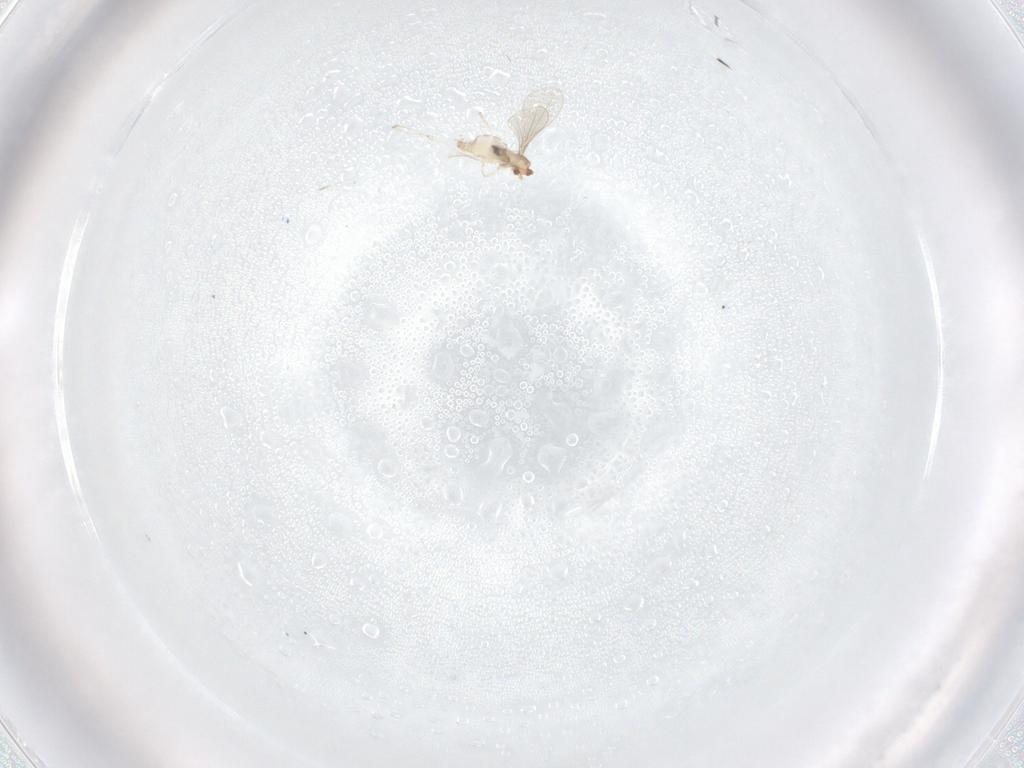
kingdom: Animalia
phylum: Arthropoda
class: Insecta
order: Diptera
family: Cecidomyiidae
